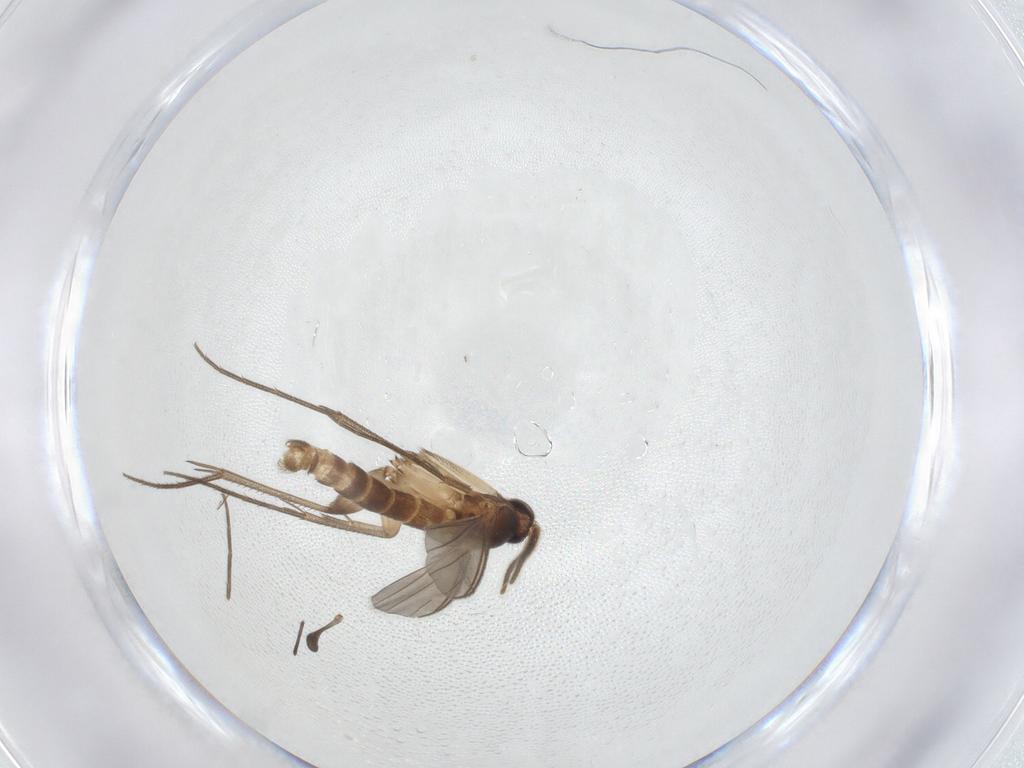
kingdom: Animalia
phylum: Arthropoda
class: Insecta
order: Diptera
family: Mycetophilidae
